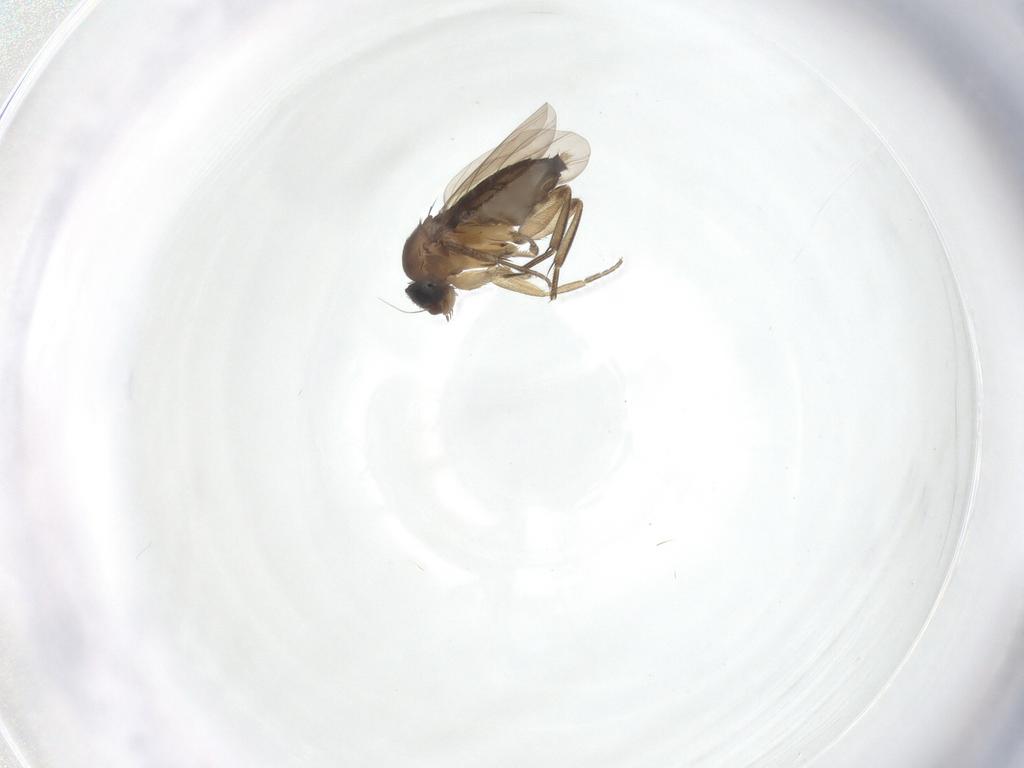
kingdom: Animalia
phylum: Arthropoda
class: Insecta
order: Diptera
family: Phoridae
